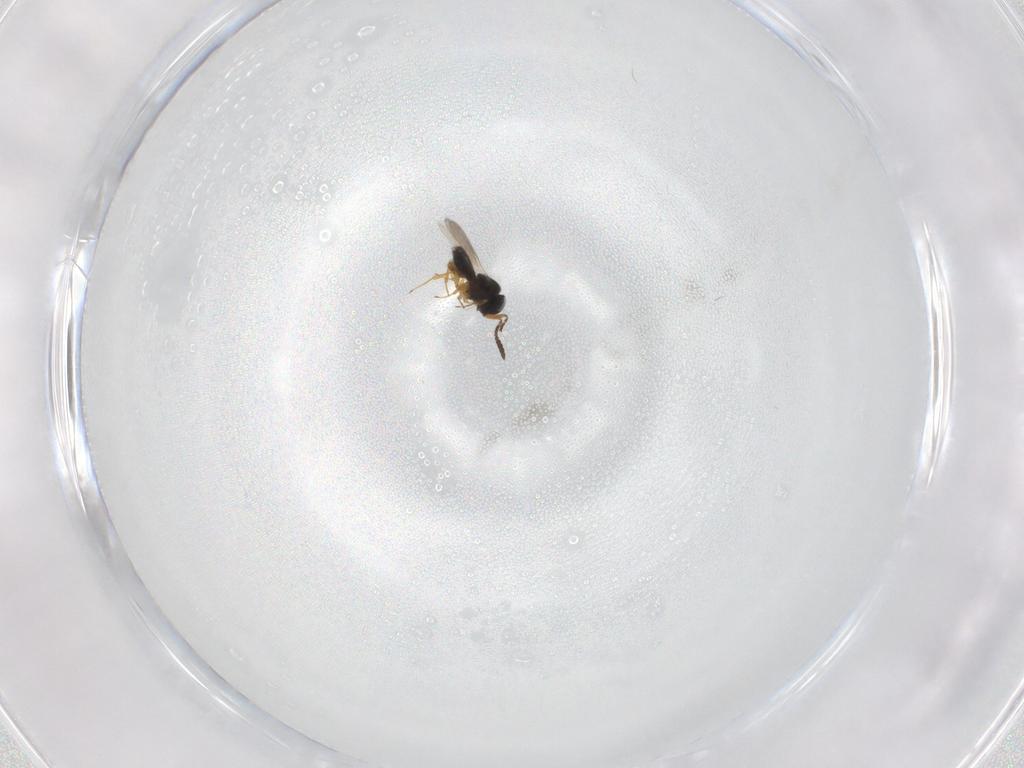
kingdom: Animalia
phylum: Arthropoda
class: Insecta
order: Hymenoptera
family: Scelionidae
